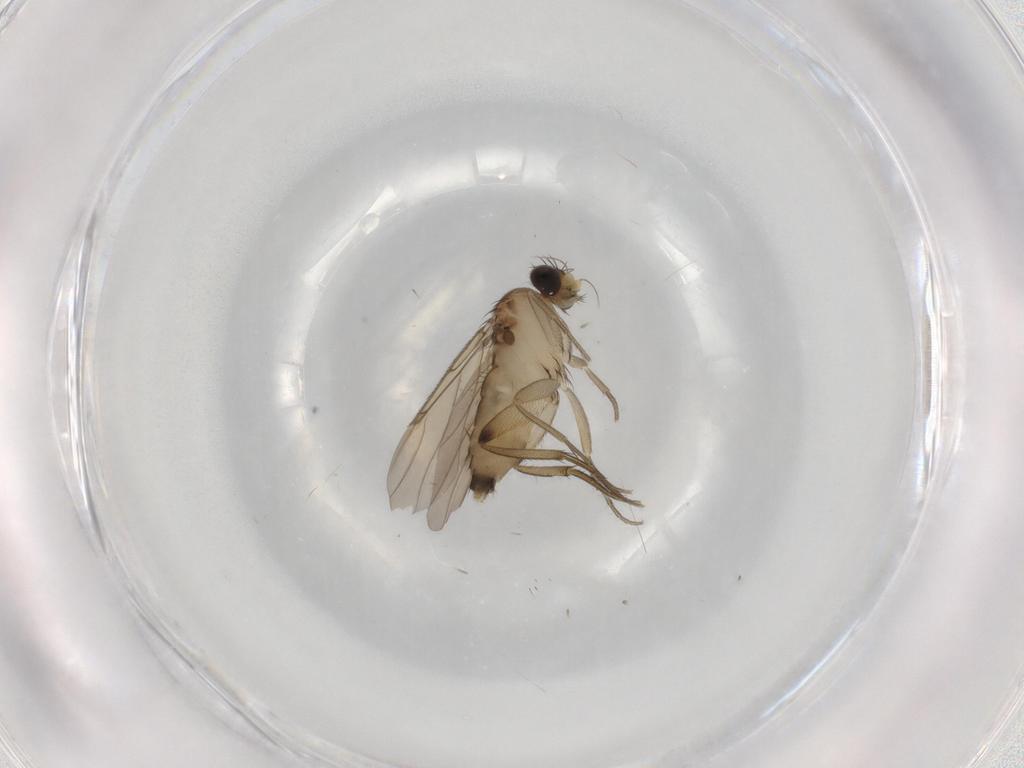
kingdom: Animalia
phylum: Arthropoda
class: Insecta
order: Diptera
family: Phoridae
